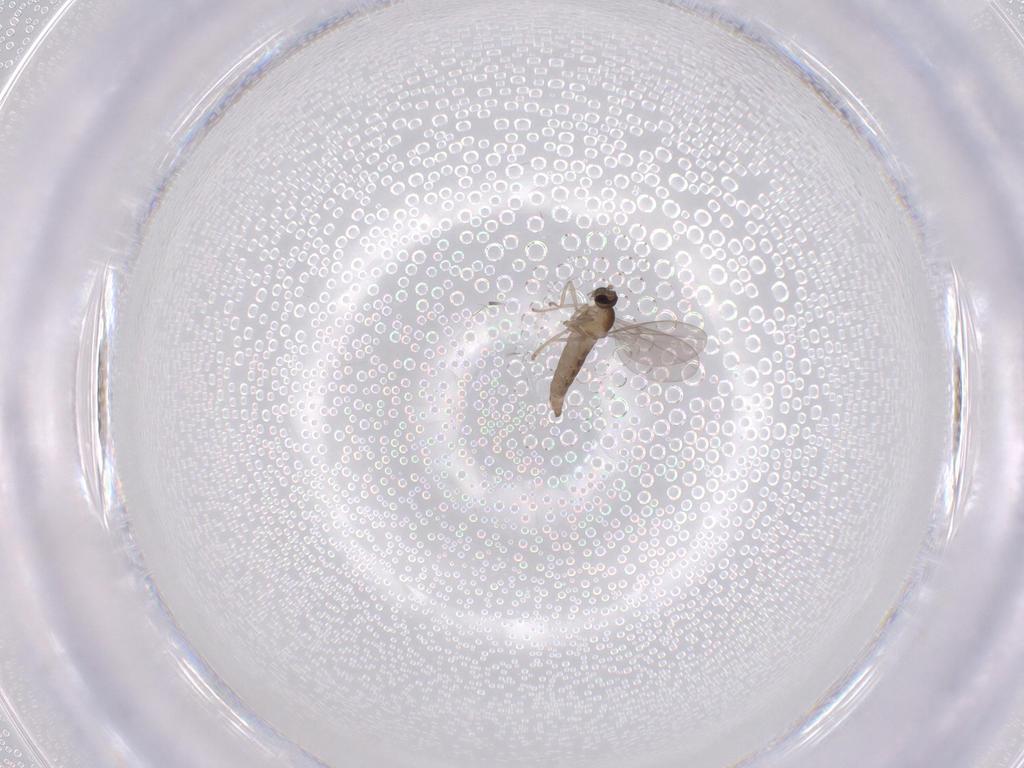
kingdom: Animalia
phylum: Arthropoda
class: Insecta
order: Diptera
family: Cecidomyiidae
